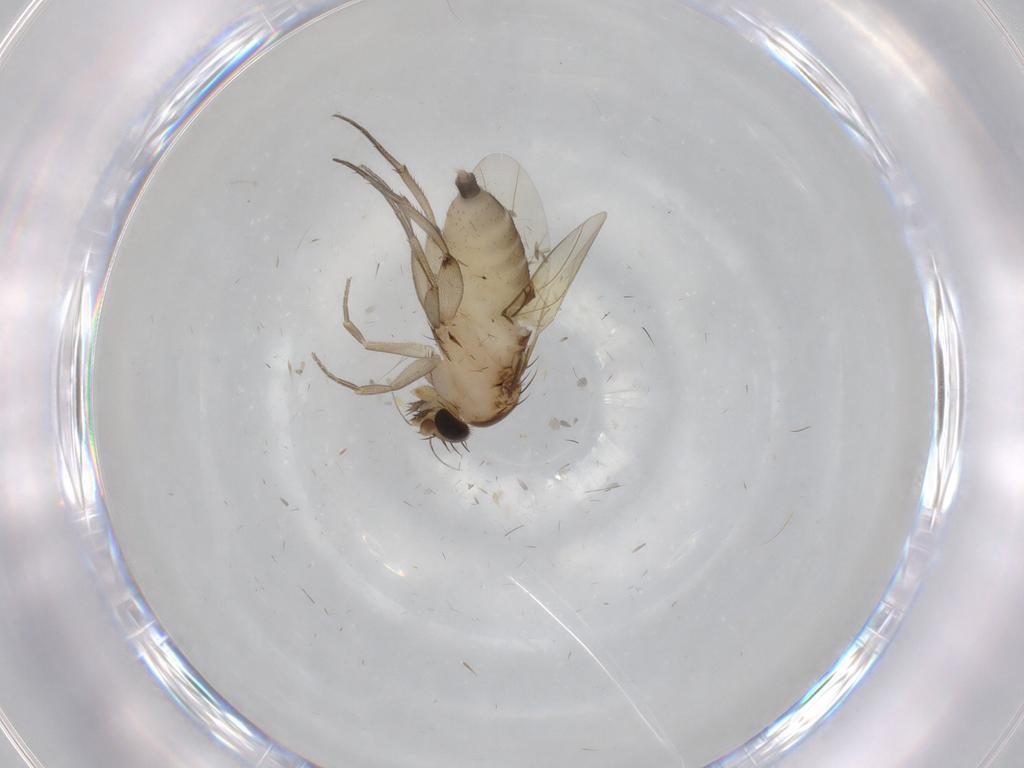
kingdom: Animalia
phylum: Arthropoda
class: Insecta
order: Diptera
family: Phoridae
